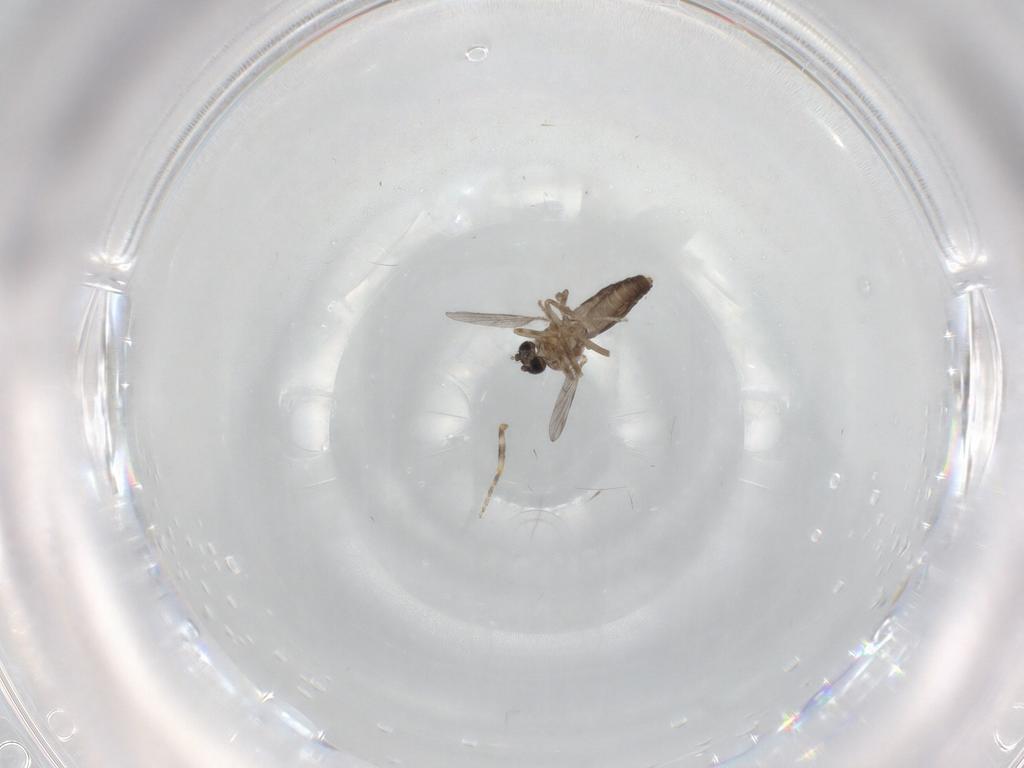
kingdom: Animalia
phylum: Arthropoda
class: Insecta
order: Diptera
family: Ceratopogonidae
